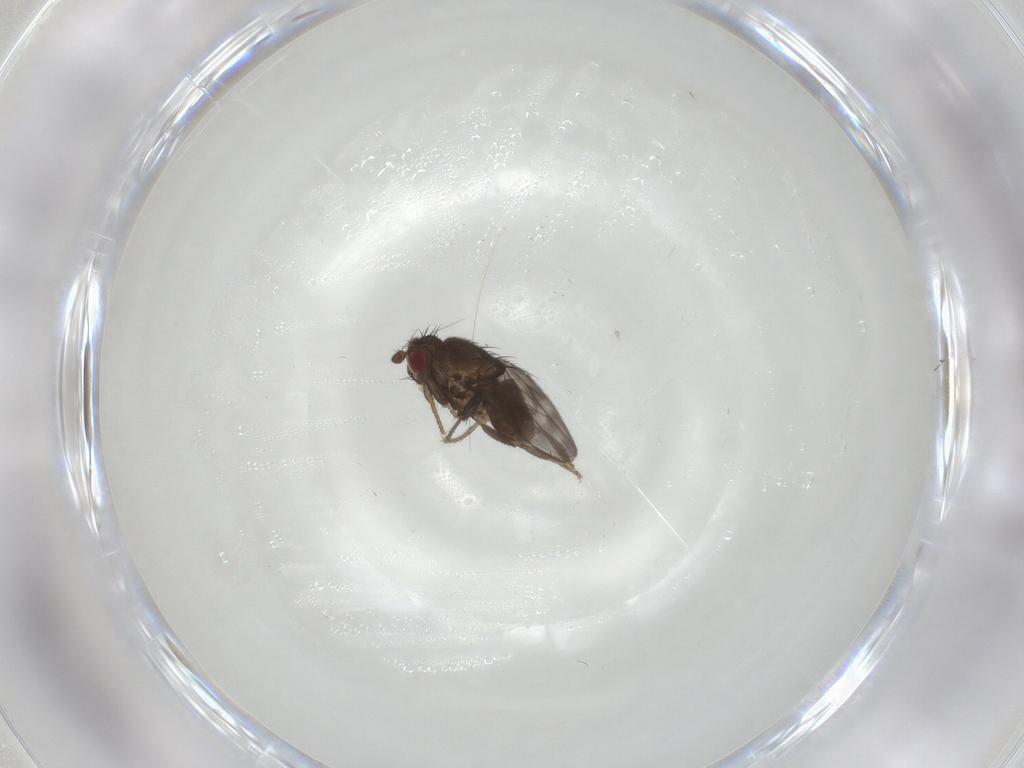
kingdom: Animalia
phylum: Arthropoda
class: Insecta
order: Diptera
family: Sphaeroceridae
